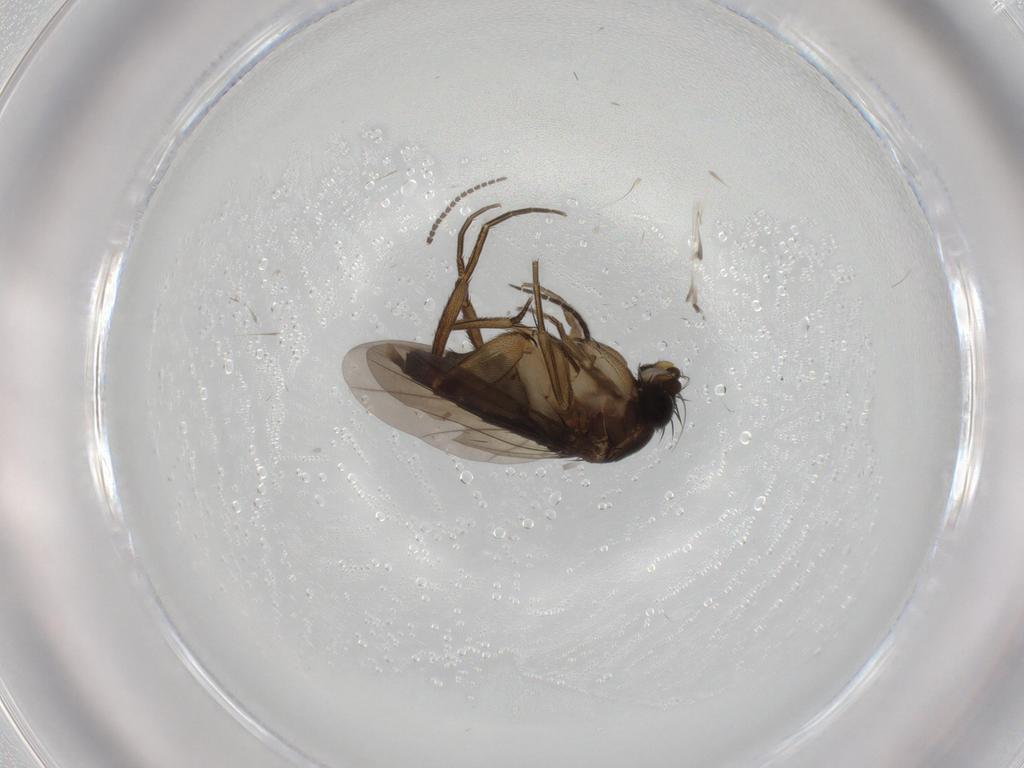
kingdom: Animalia
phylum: Arthropoda
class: Insecta
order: Diptera
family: Phoridae
